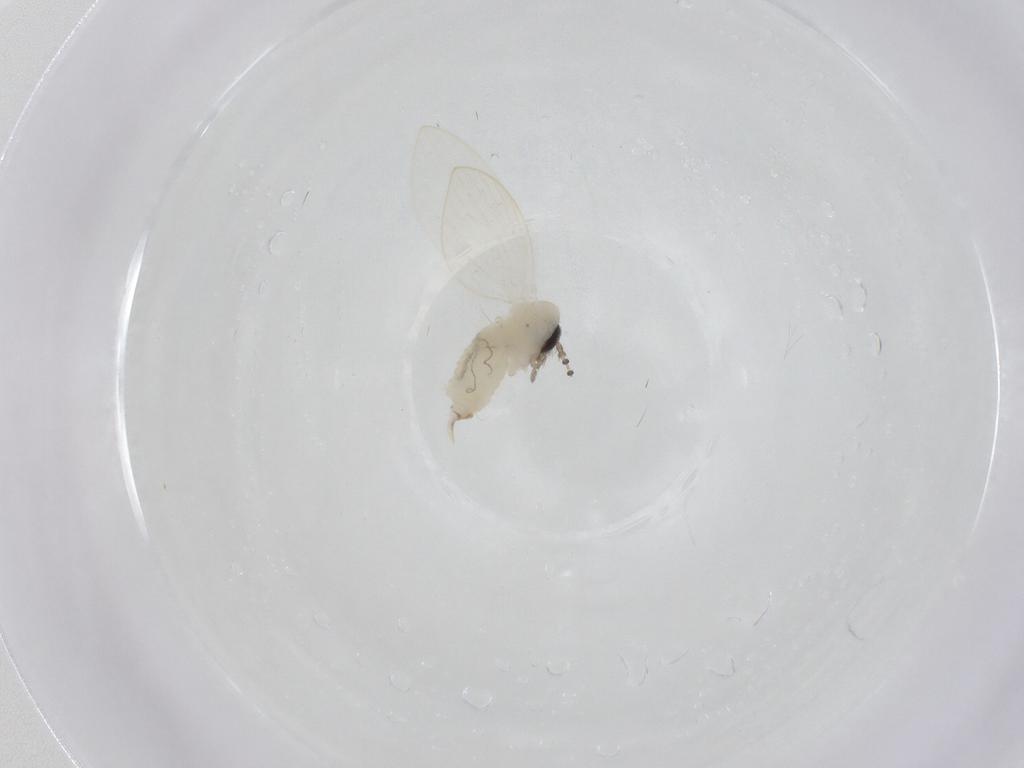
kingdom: Animalia
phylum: Arthropoda
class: Insecta
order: Diptera
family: Psychodidae
